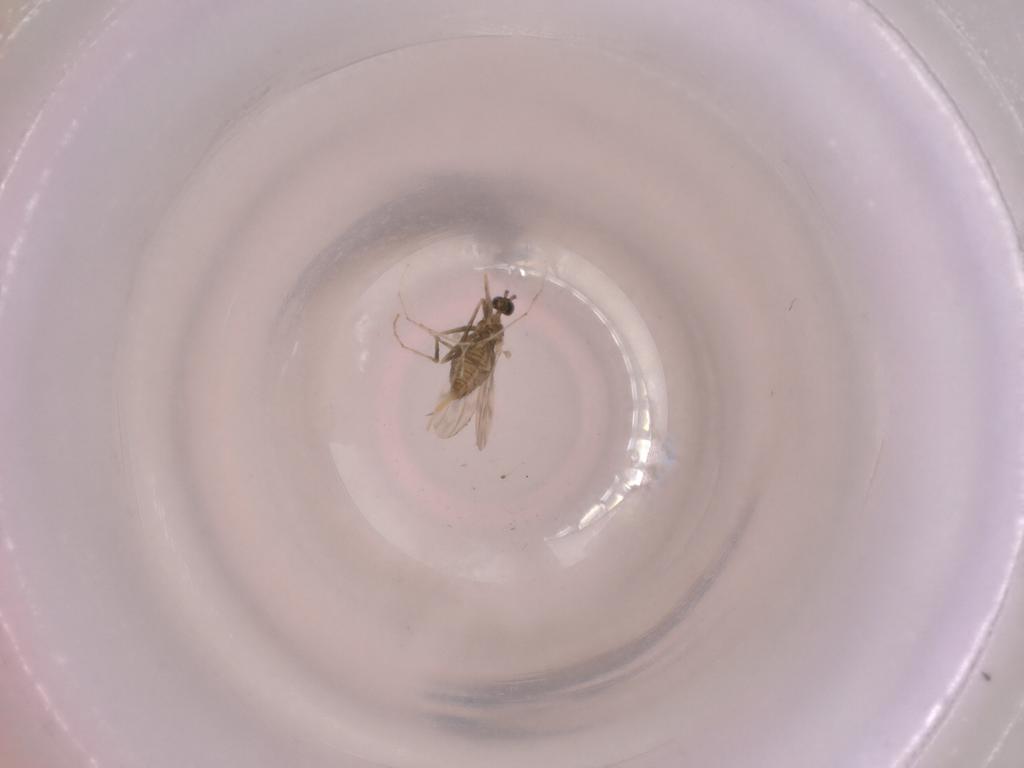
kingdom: Animalia
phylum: Arthropoda
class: Insecta
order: Diptera
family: Cecidomyiidae
